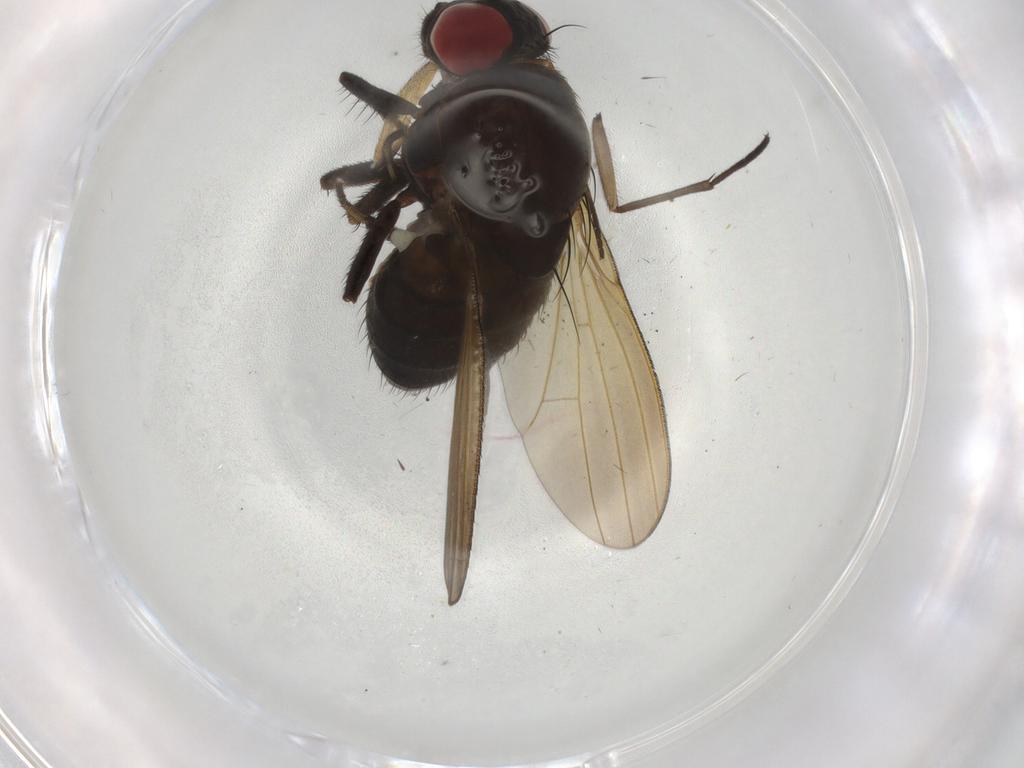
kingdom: Animalia
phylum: Arthropoda
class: Insecta
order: Diptera
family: Lauxaniidae
